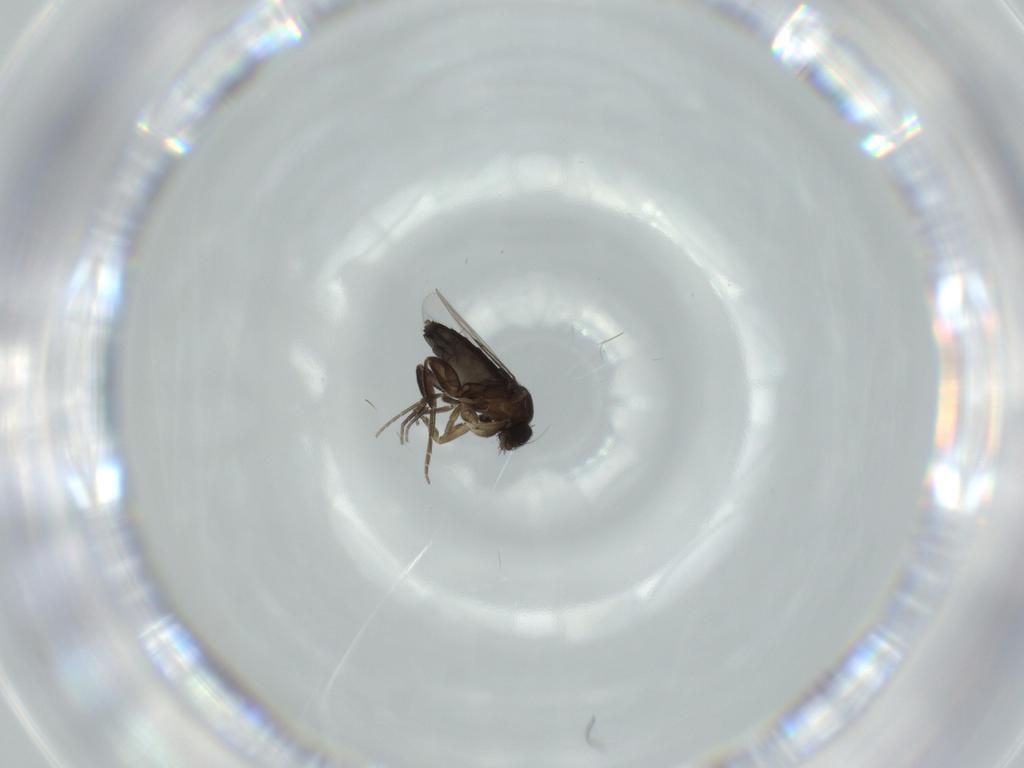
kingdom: Animalia
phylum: Arthropoda
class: Insecta
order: Diptera
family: Phoridae
